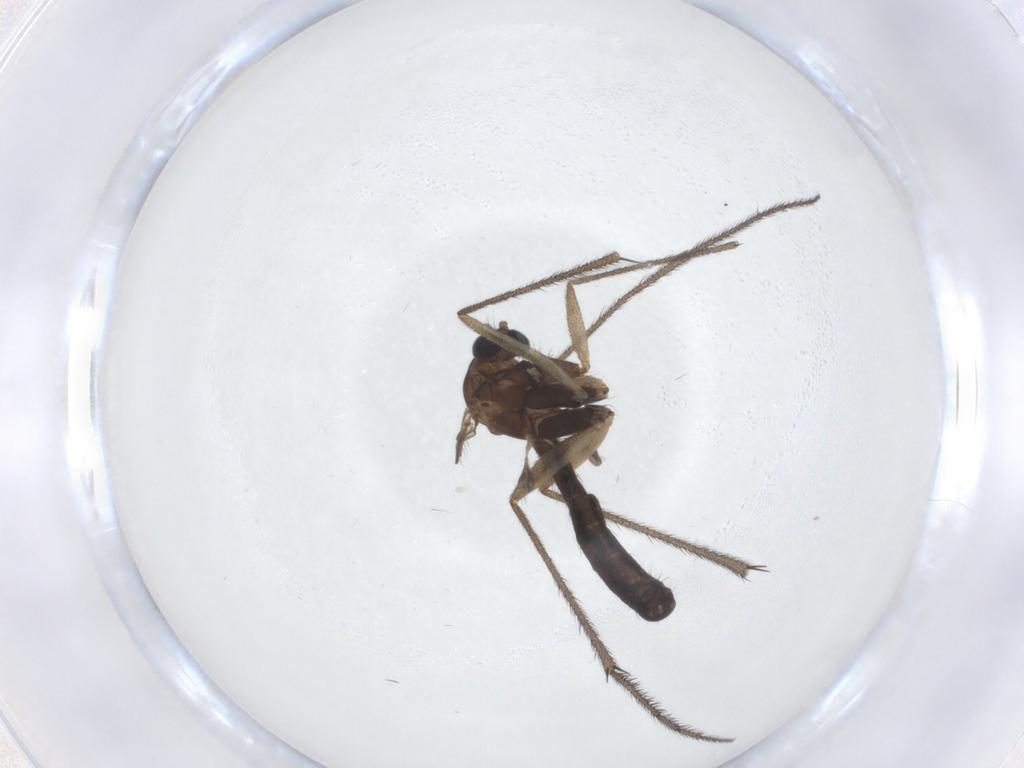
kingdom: Animalia
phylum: Arthropoda
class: Insecta
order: Diptera
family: Ditomyiidae
